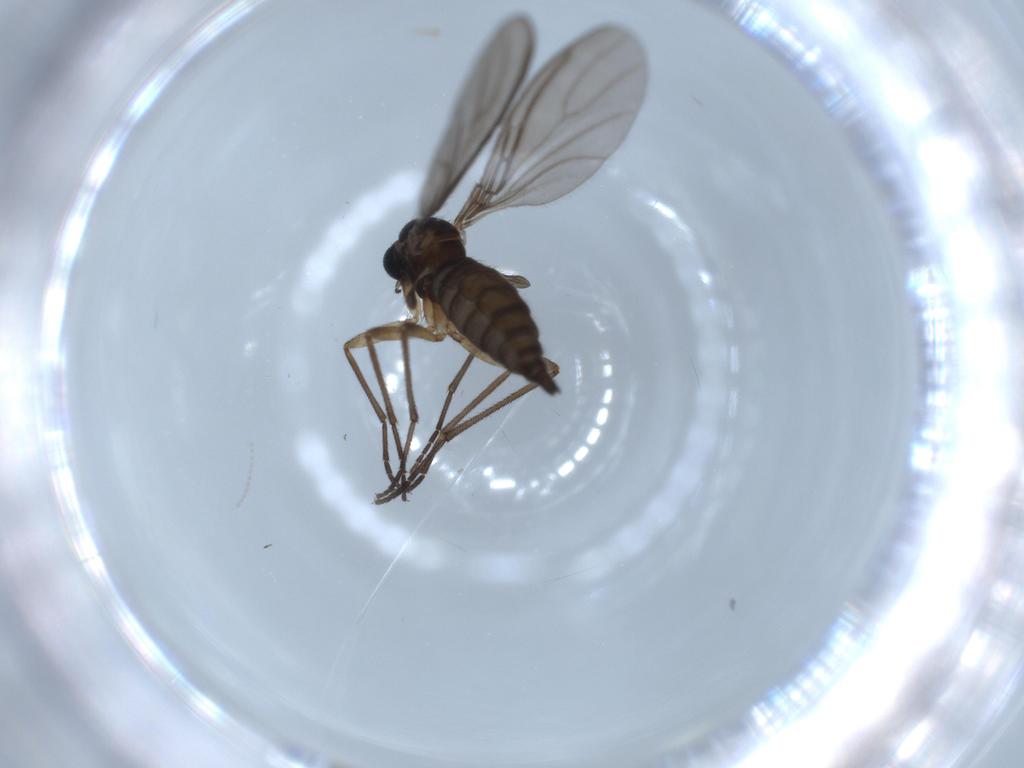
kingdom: Animalia
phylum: Arthropoda
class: Insecta
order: Diptera
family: Sciaridae
